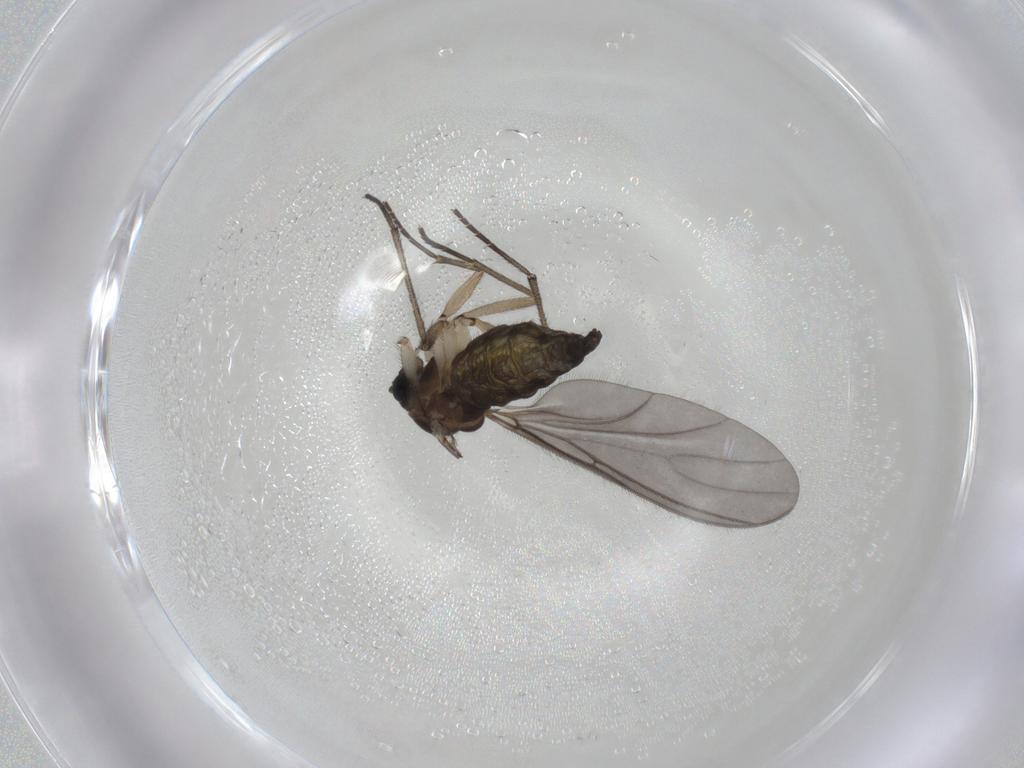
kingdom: Animalia
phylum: Arthropoda
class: Insecta
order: Diptera
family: Sciaridae
